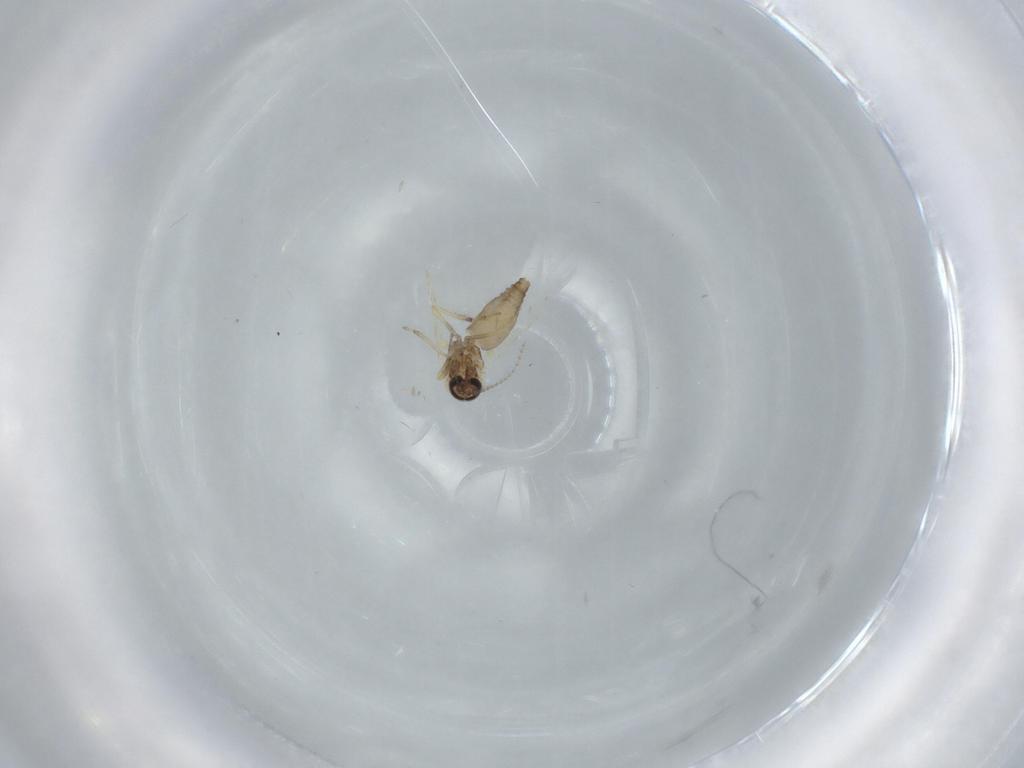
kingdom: Animalia
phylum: Arthropoda
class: Insecta
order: Diptera
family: Ceratopogonidae
